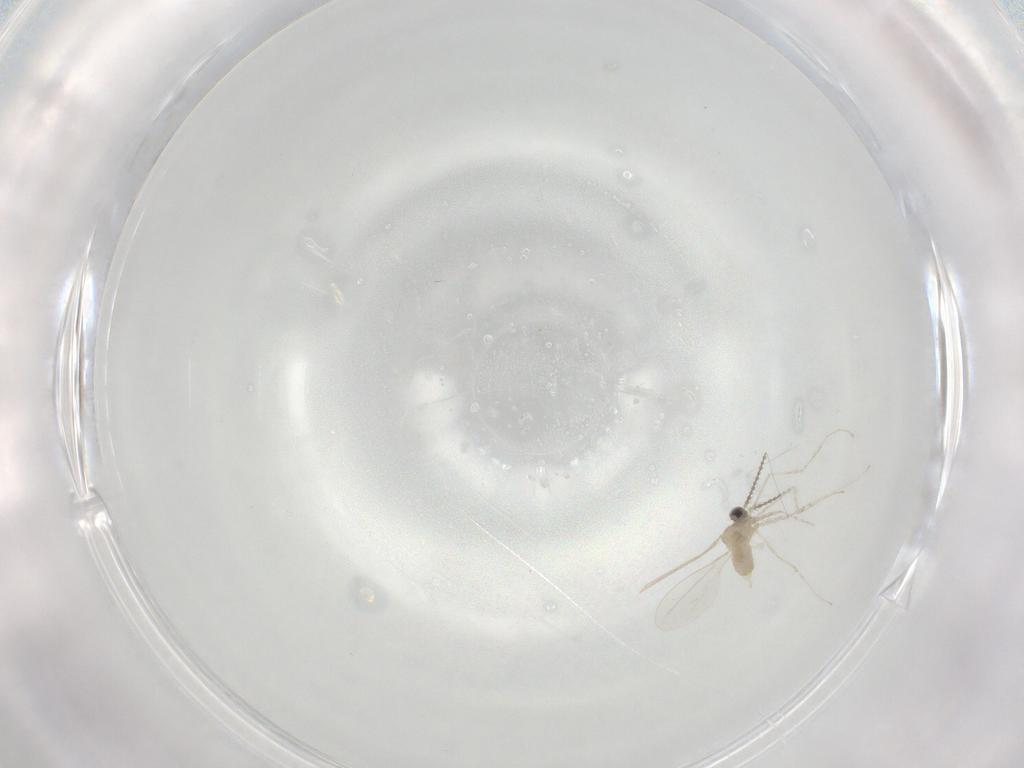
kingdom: Animalia
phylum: Arthropoda
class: Insecta
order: Diptera
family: Cecidomyiidae
